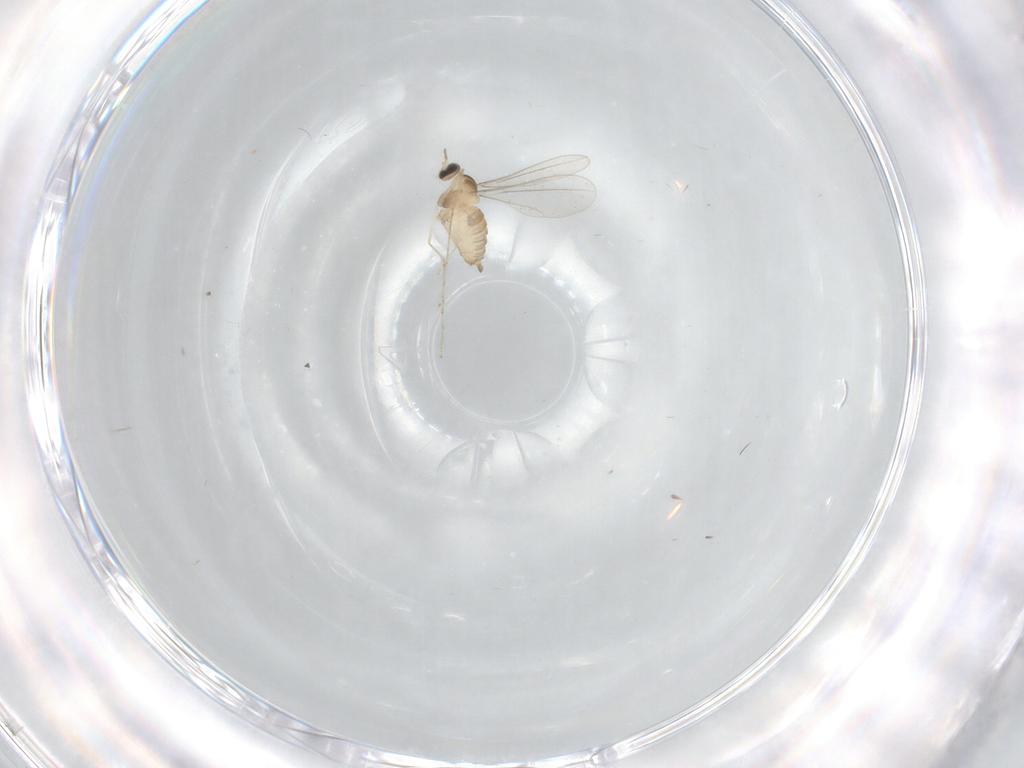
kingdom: Animalia
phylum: Arthropoda
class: Insecta
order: Diptera
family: Cecidomyiidae
